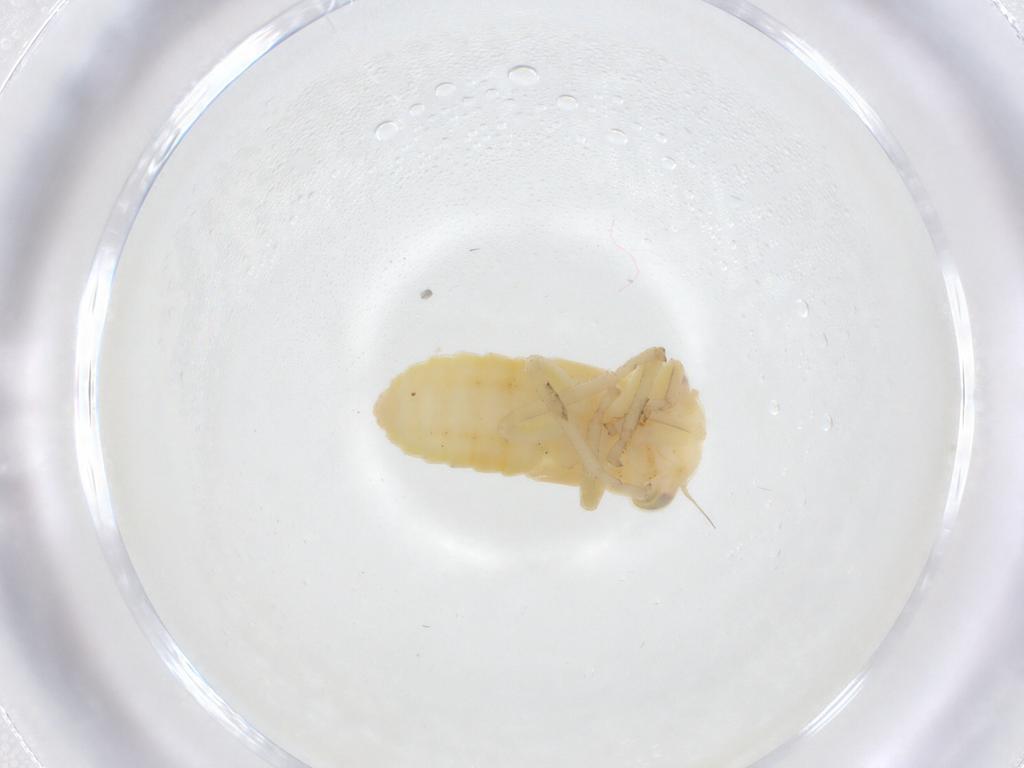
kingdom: Animalia
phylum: Arthropoda
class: Insecta
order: Hemiptera
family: Cicadellidae
